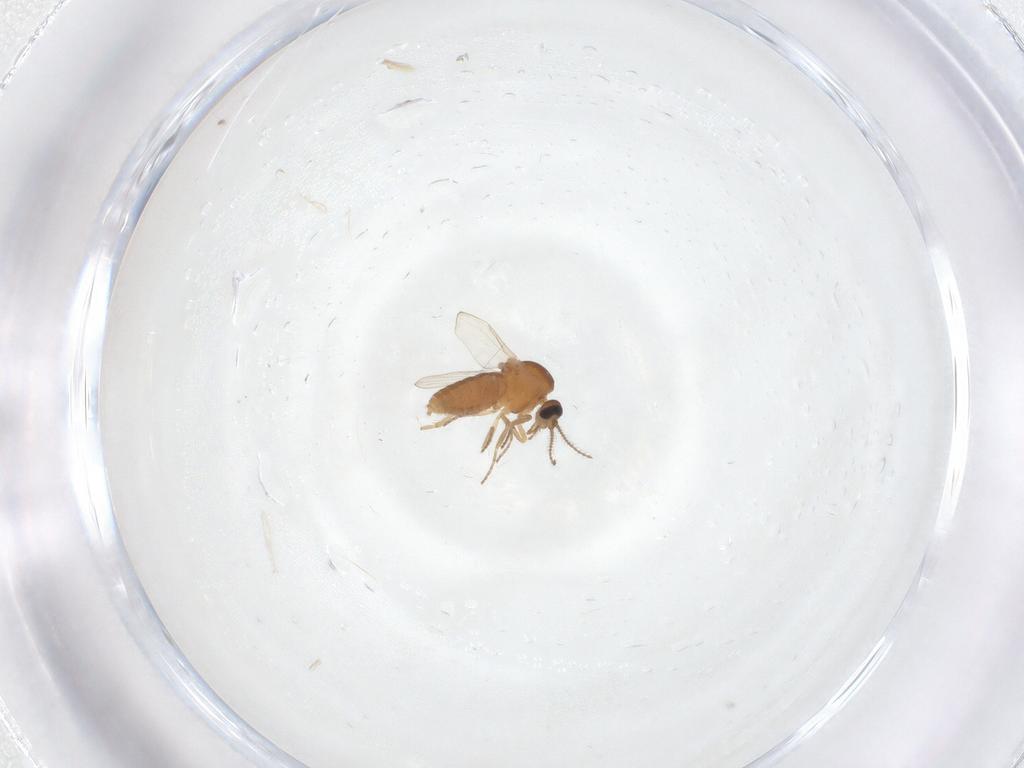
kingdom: Animalia
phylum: Arthropoda
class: Insecta
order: Diptera
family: Ceratopogonidae
